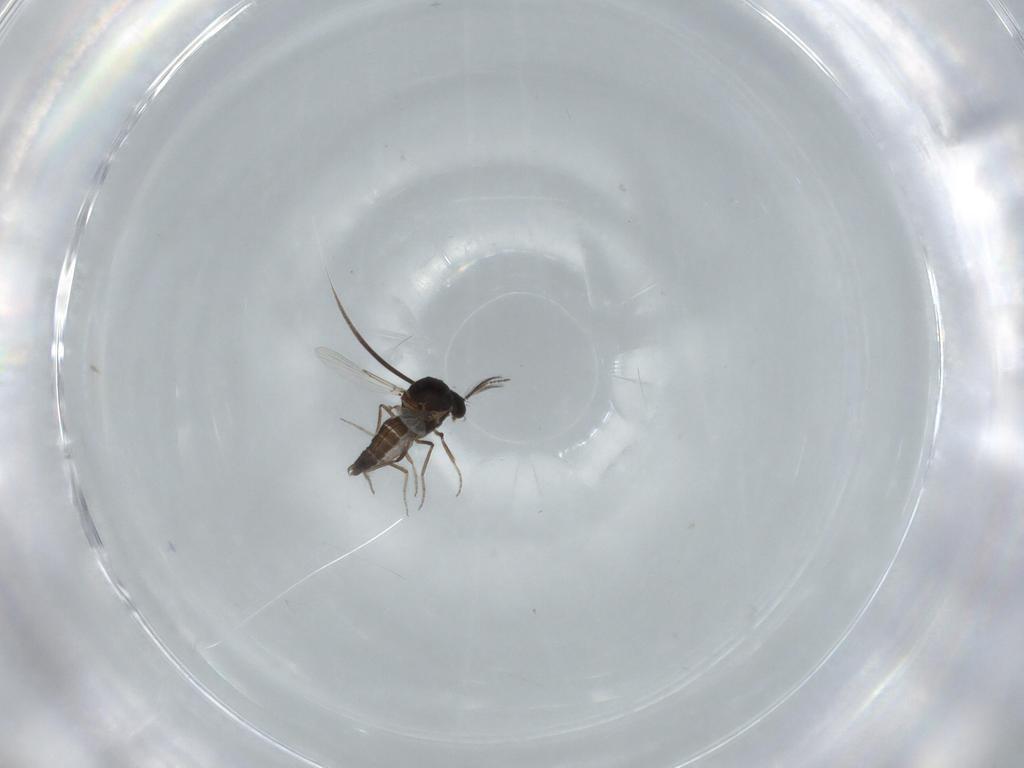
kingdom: Animalia
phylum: Arthropoda
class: Insecta
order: Diptera
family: Ceratopogonidae
